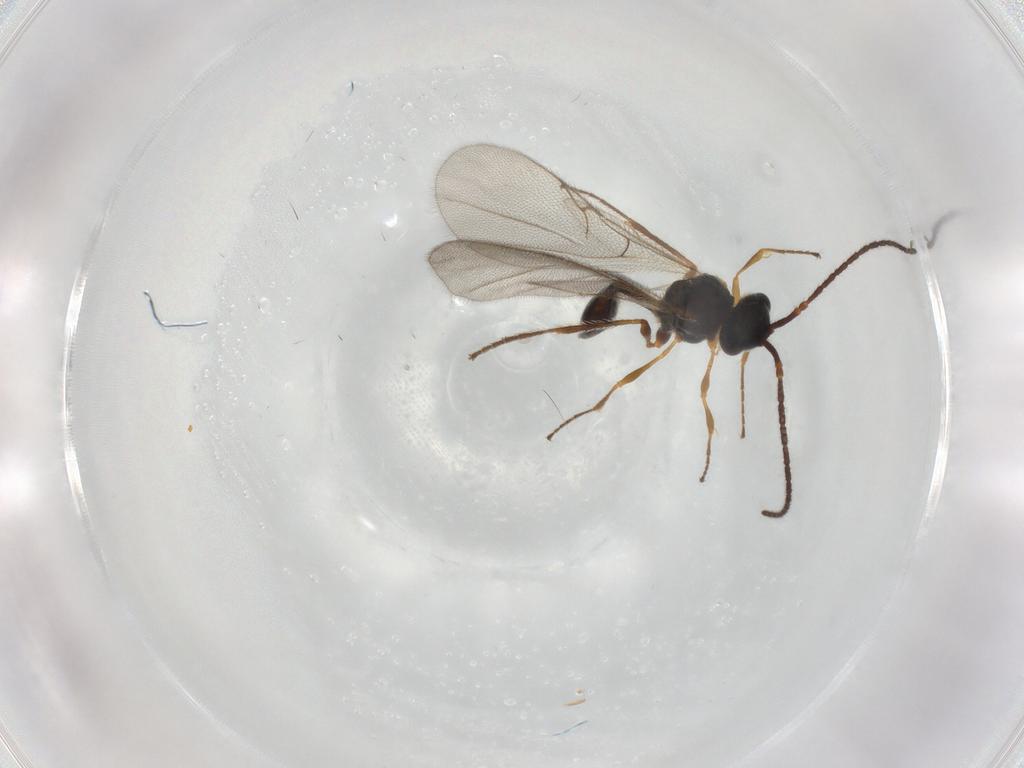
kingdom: Animalia
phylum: Arthropoda
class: Insecta
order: Hymenoptera
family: Diapriidae
